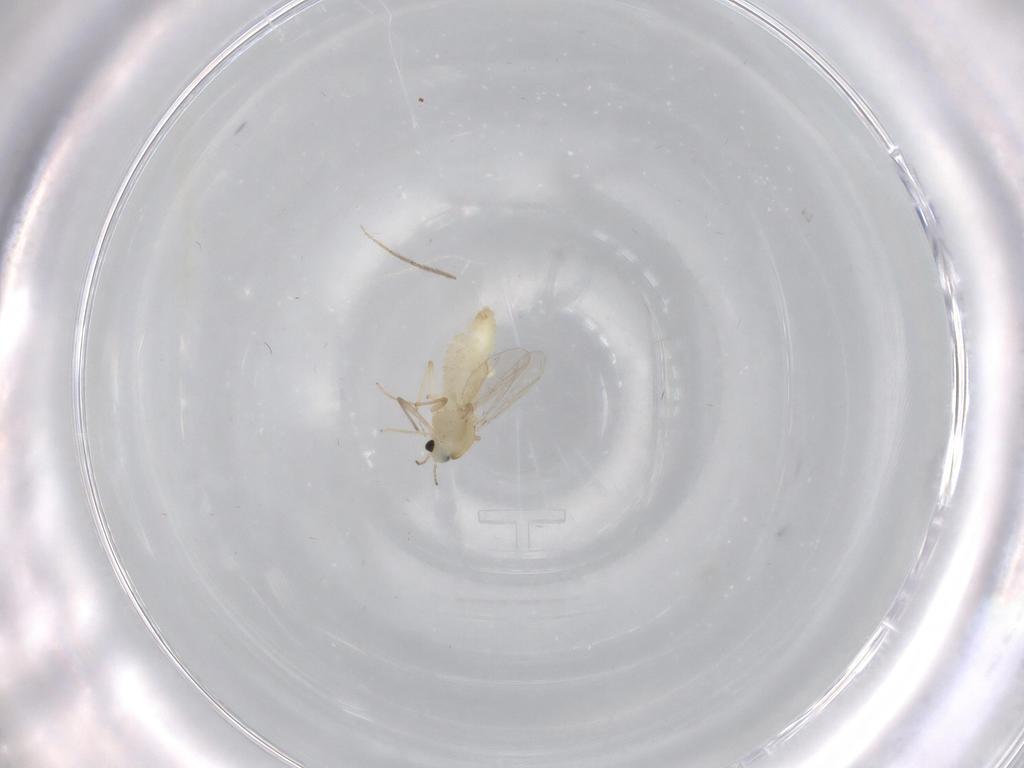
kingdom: Animalia
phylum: Arthropoda
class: Insecta
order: Diptera
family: Chironomidae
